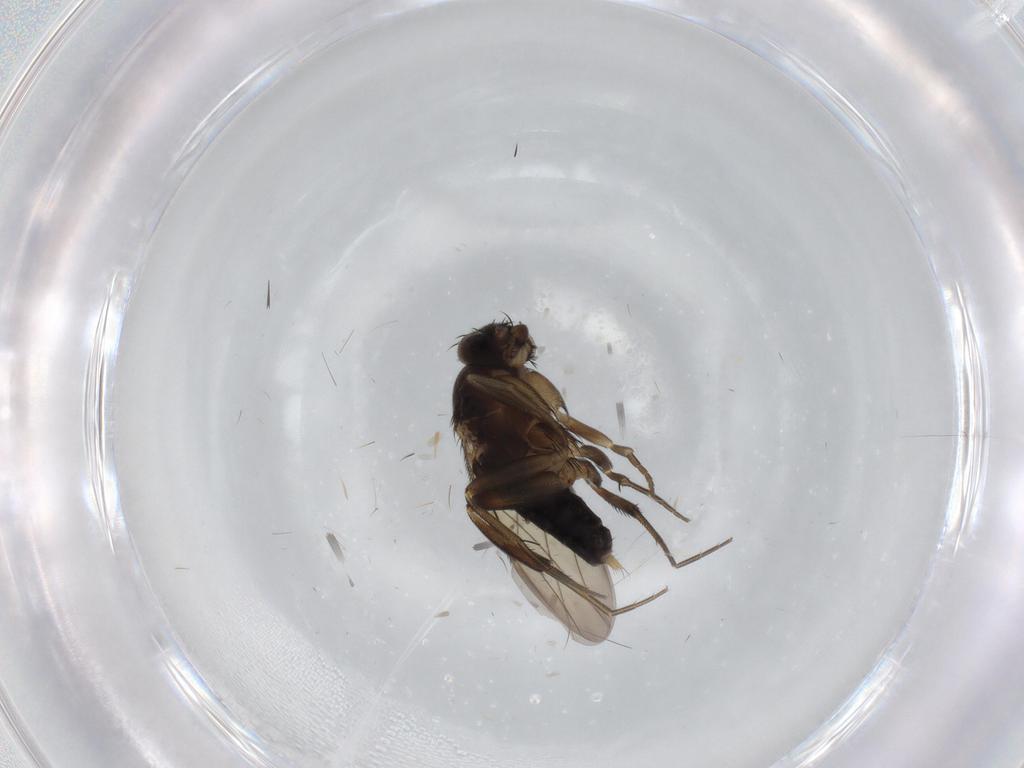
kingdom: Animalia
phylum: Arthropoda
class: Insecta
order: Diptera
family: Phoridae
